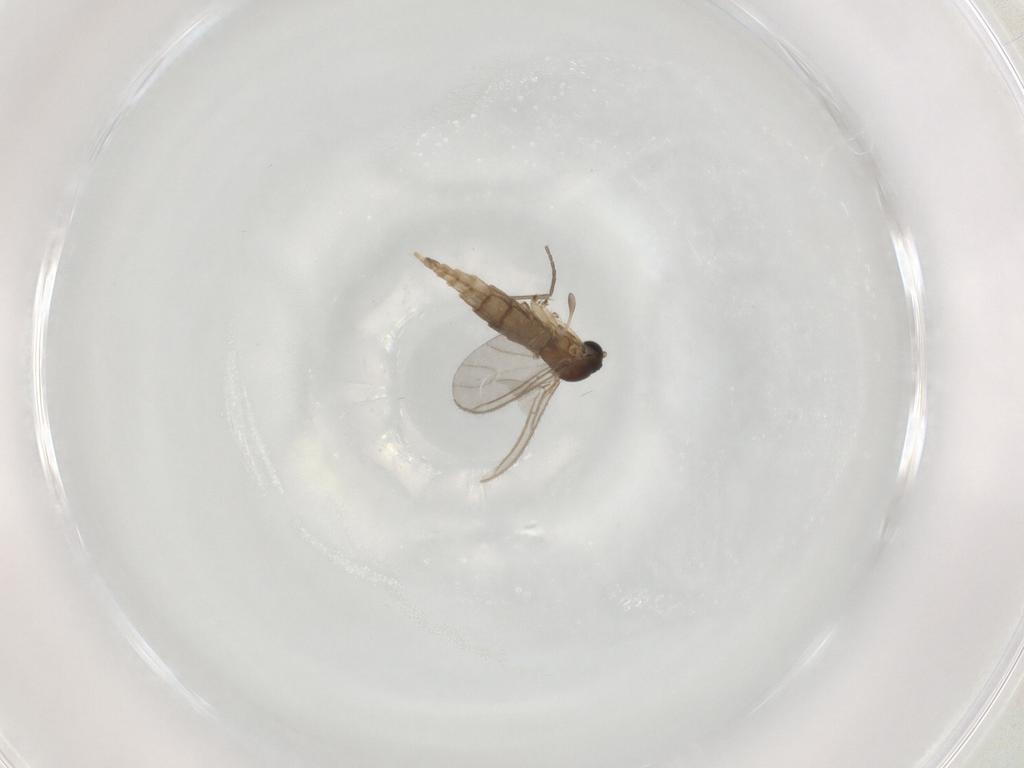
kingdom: Animalia
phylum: Arthropoda
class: Insecta
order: Diptera
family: Sciaridae
